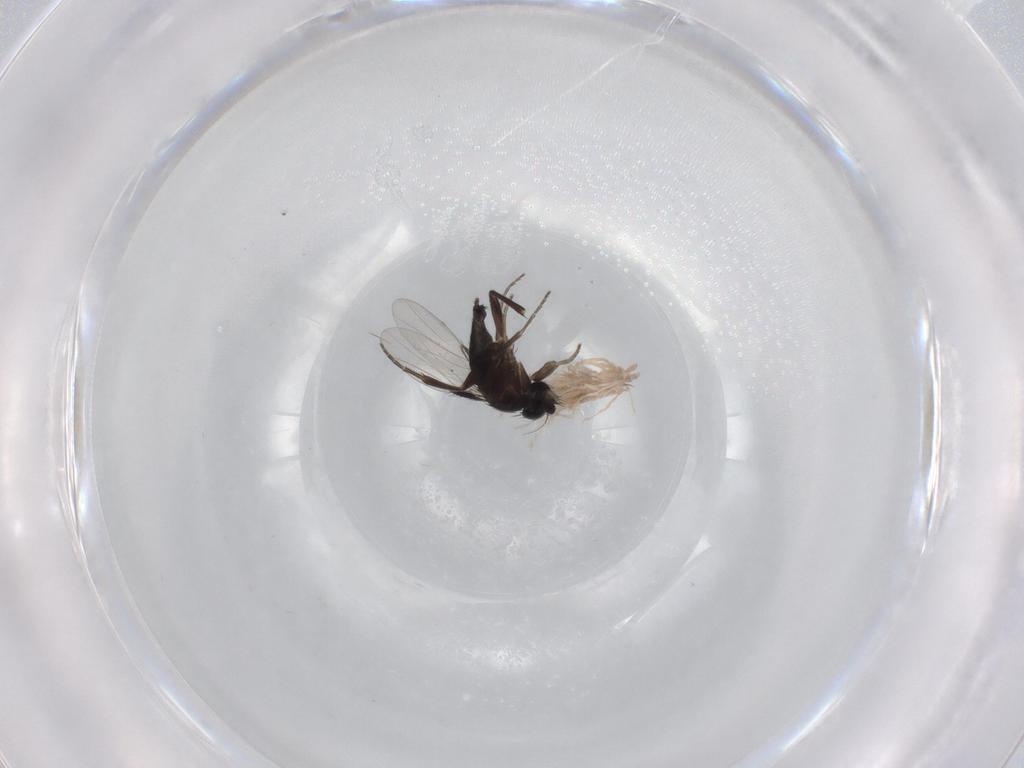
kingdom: Animalia
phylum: Arthropoda
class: Insecta
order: Diptera
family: Phoridae
